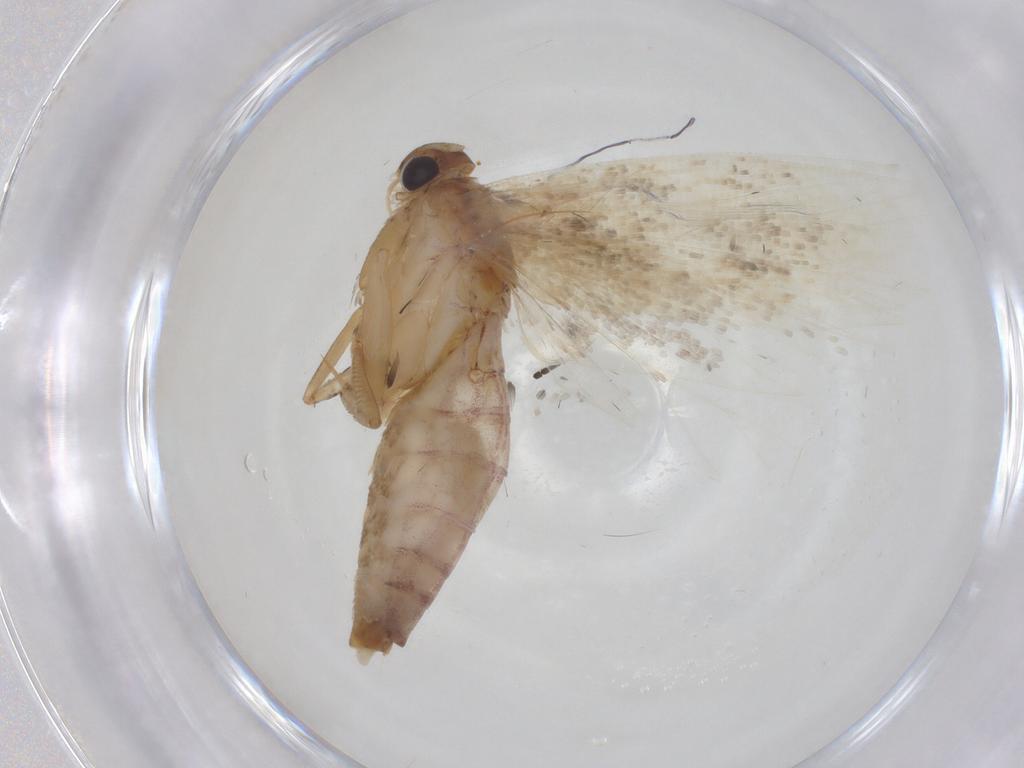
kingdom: Animalia
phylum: Arthropoda
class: Insecta
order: Lepidoptera
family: Gelechiidae
